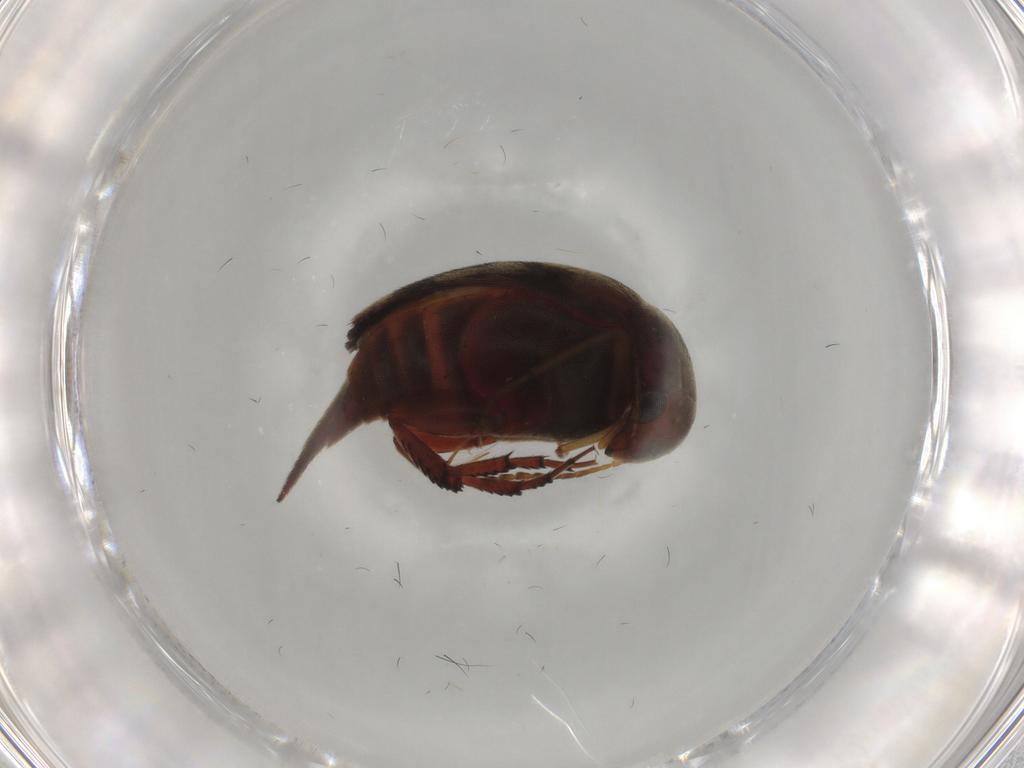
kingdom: Animalia
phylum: Arthropoda
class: Insecta
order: Coleoptera
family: Mordellidae
